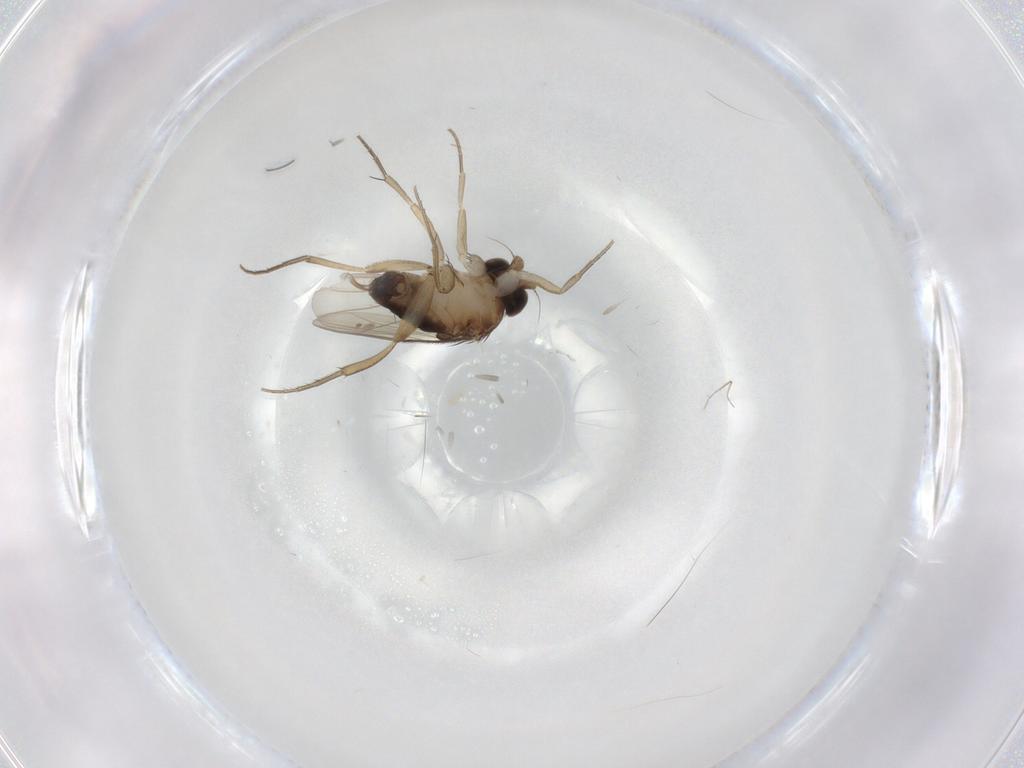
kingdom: Animalia
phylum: Arthropoda
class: Insecta
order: Diptera
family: Phoridae
